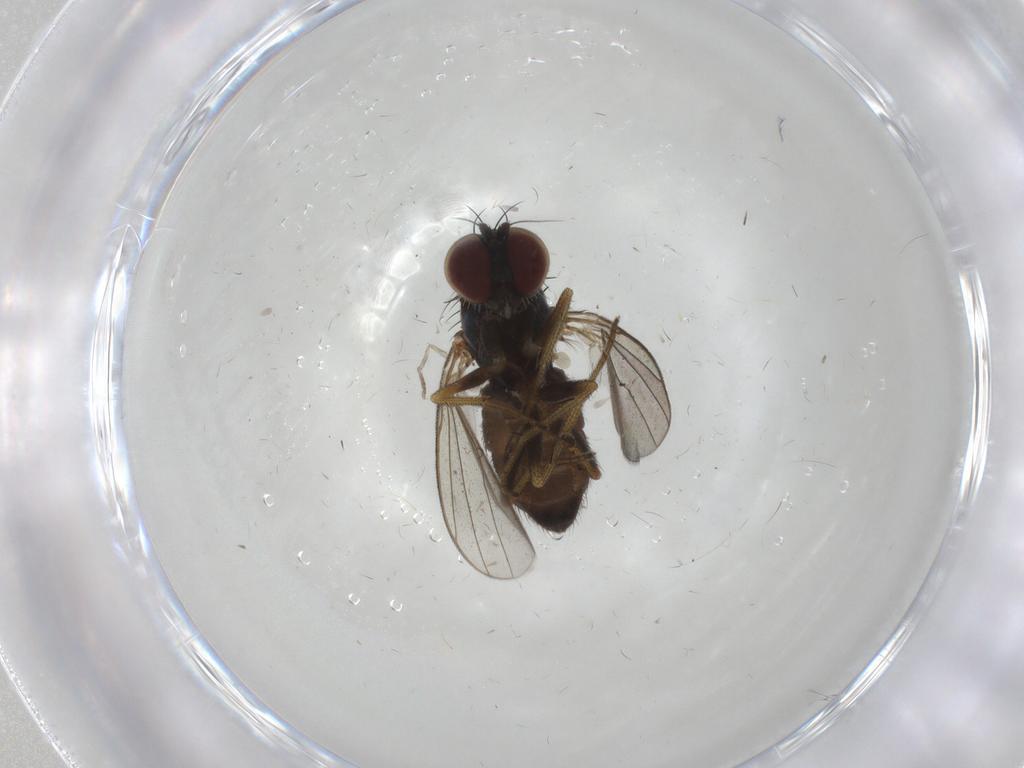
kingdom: Animalia
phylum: Arthropoda
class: Insecta
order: Diptera
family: Dolichopodidae
